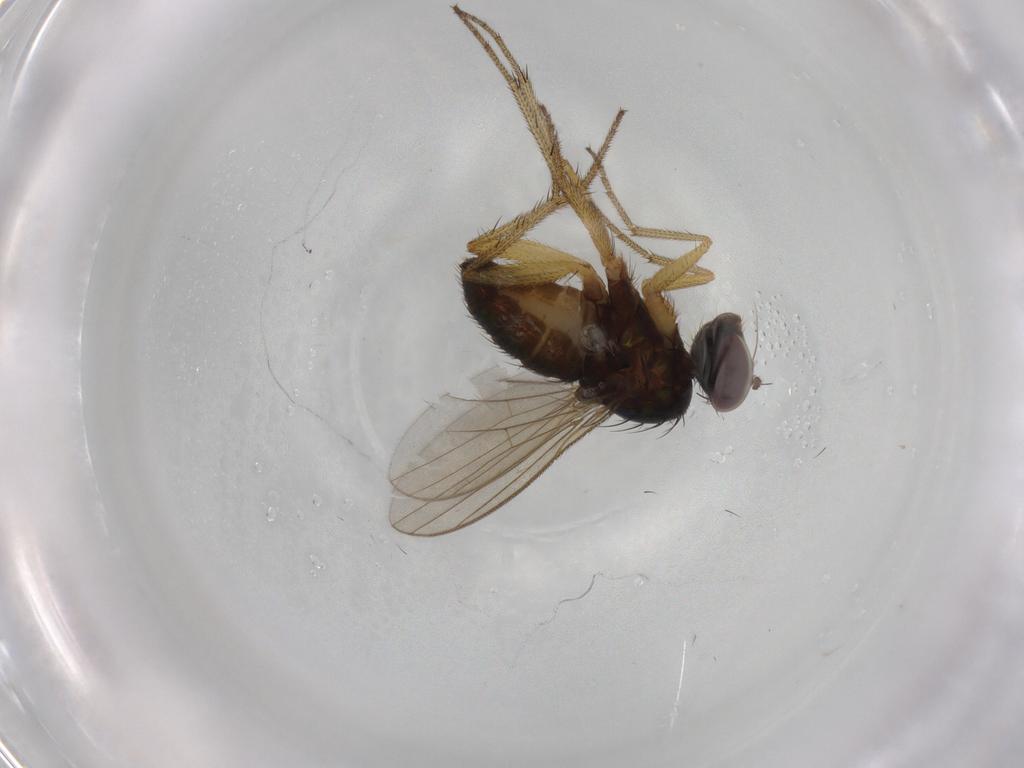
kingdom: Animalia
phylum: Arthropoda
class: Insecta
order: Diptera
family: Dolichopodidae
